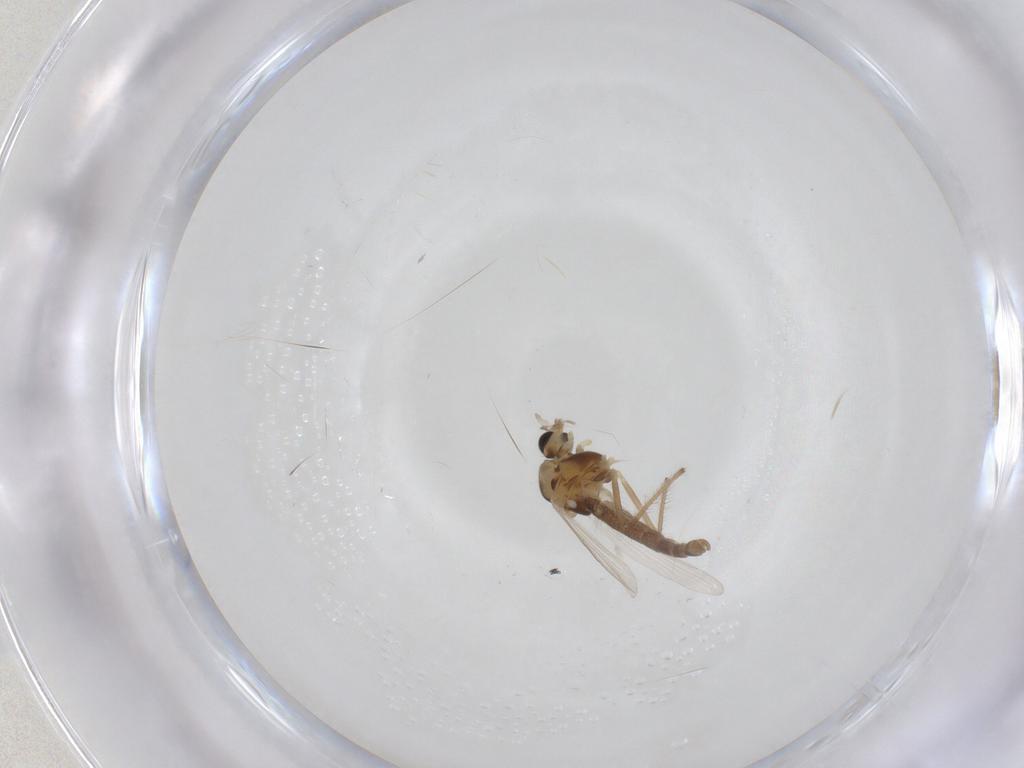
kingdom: Animalia
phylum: Arthropoda
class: Insecta
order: Diptera
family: Chironomidae
